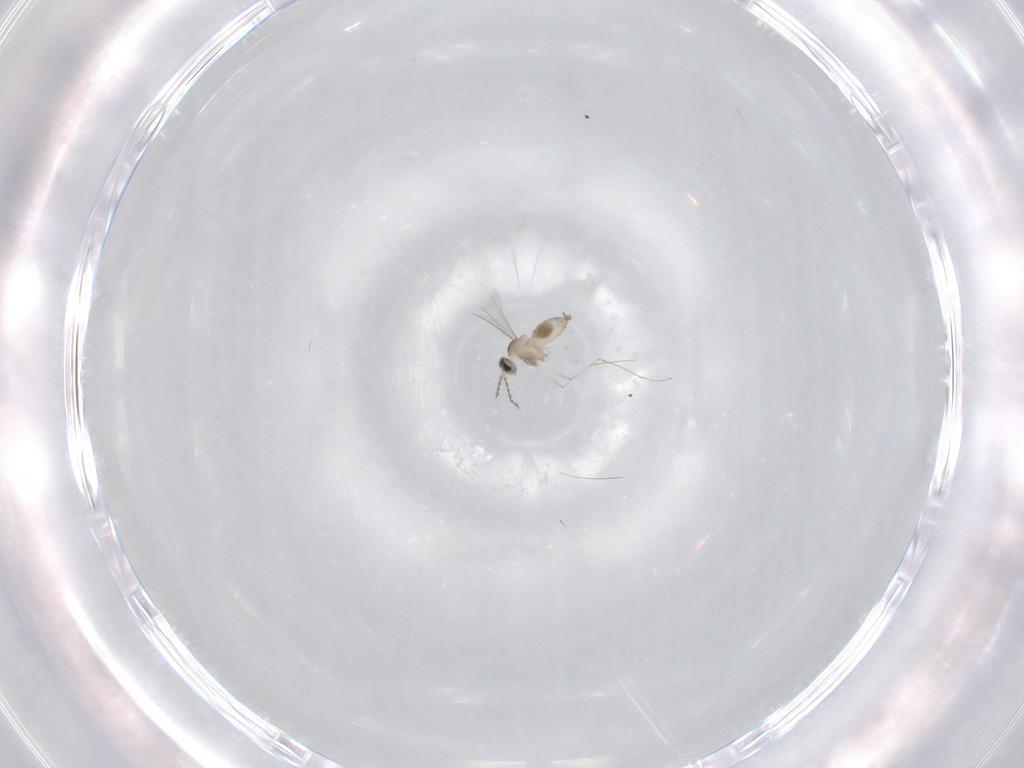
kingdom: Animalia
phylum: Arthropoda
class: Insecta
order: Diptera
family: Cecidomyiidae
